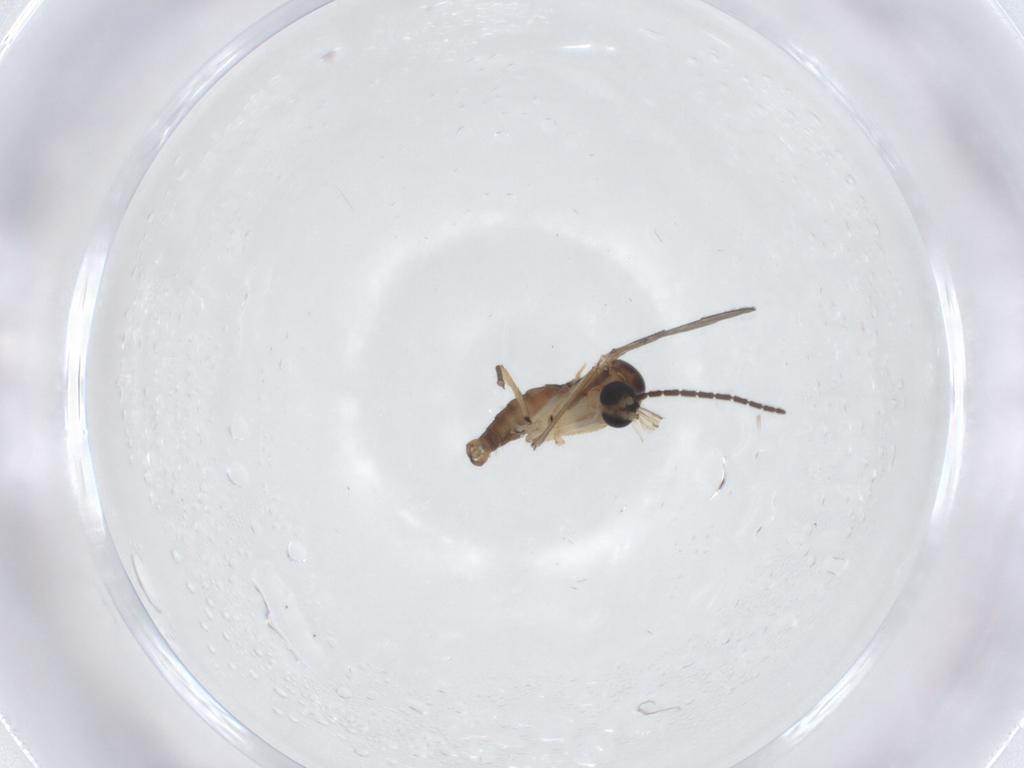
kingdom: Animalia
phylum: Arthropoda
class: Insecta
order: Diptera
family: Sciaridae
